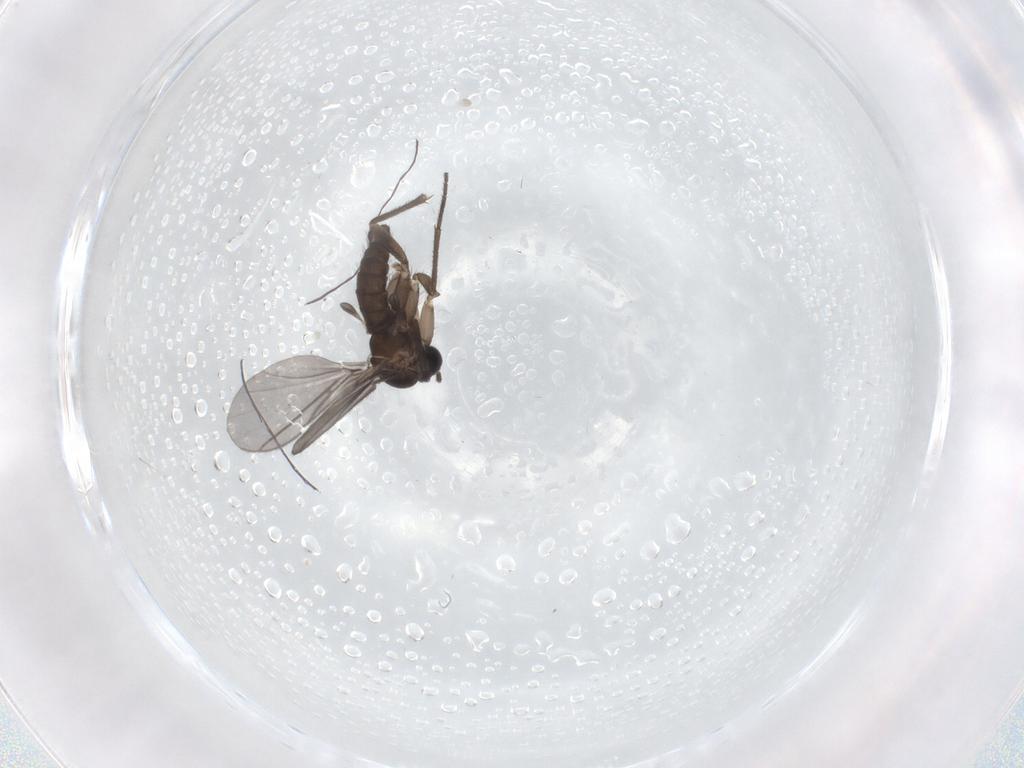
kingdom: Animalia
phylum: Arthropoda
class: Insecta
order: Diptera
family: Sciaridae
